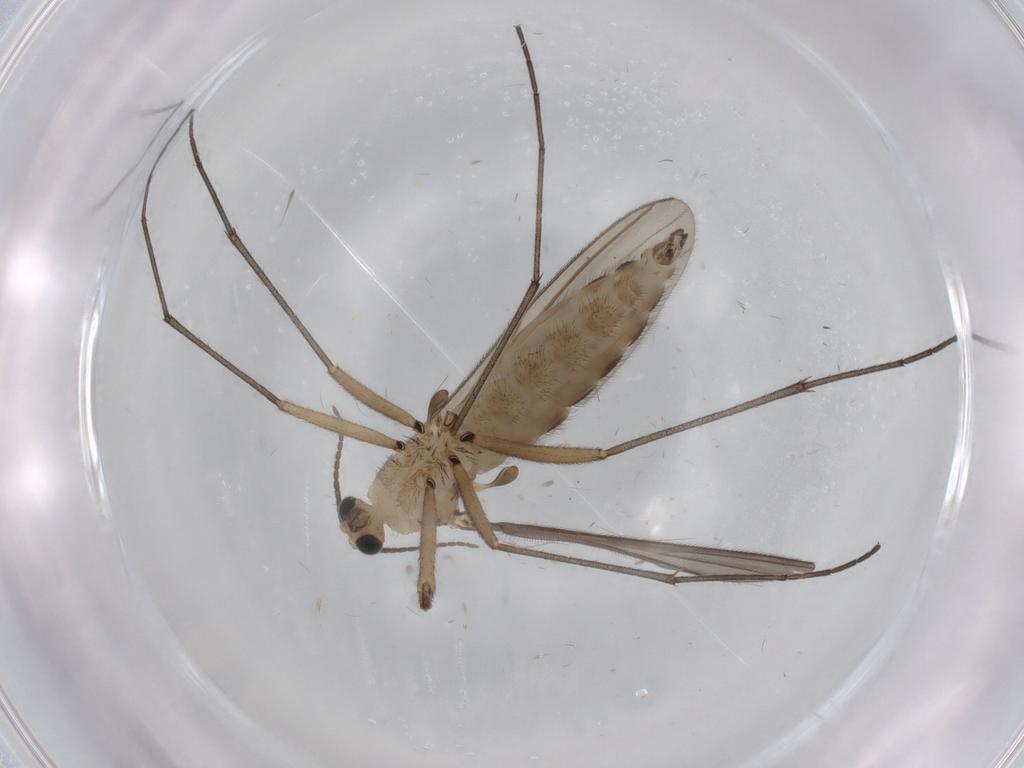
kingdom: Animalia
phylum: Arthropoda
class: Insecta
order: Diptera
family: Sciaridae
